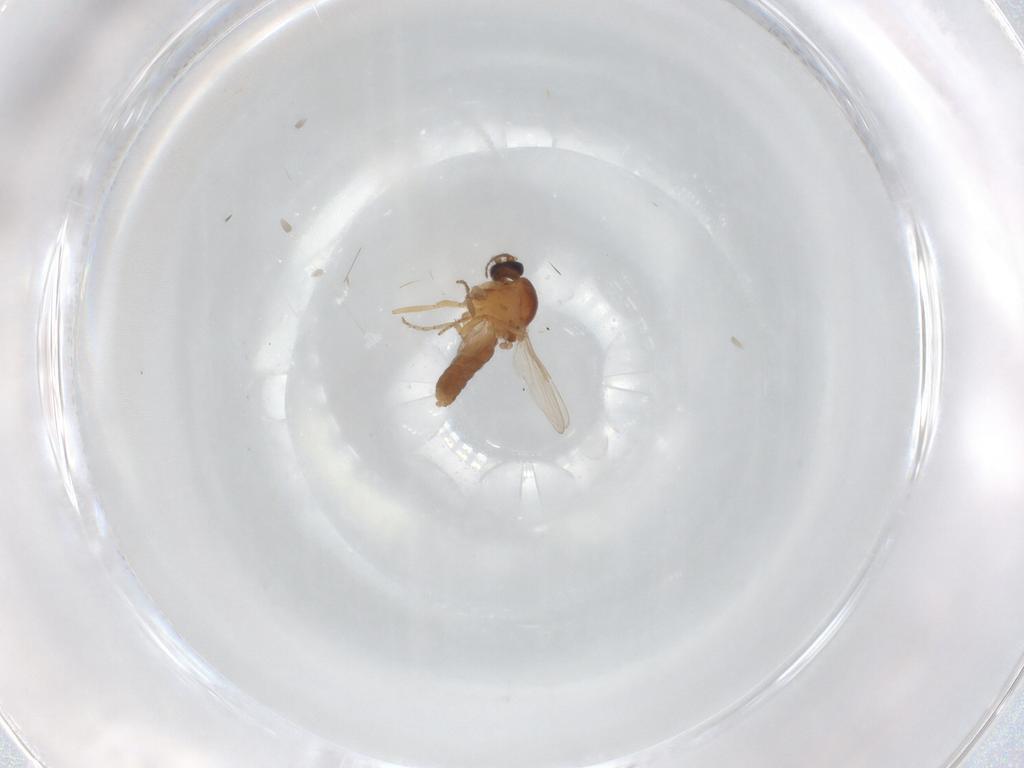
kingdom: Animalia
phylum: Arthropoda
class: Insecta
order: Diptera
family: Ceratopogonidae
